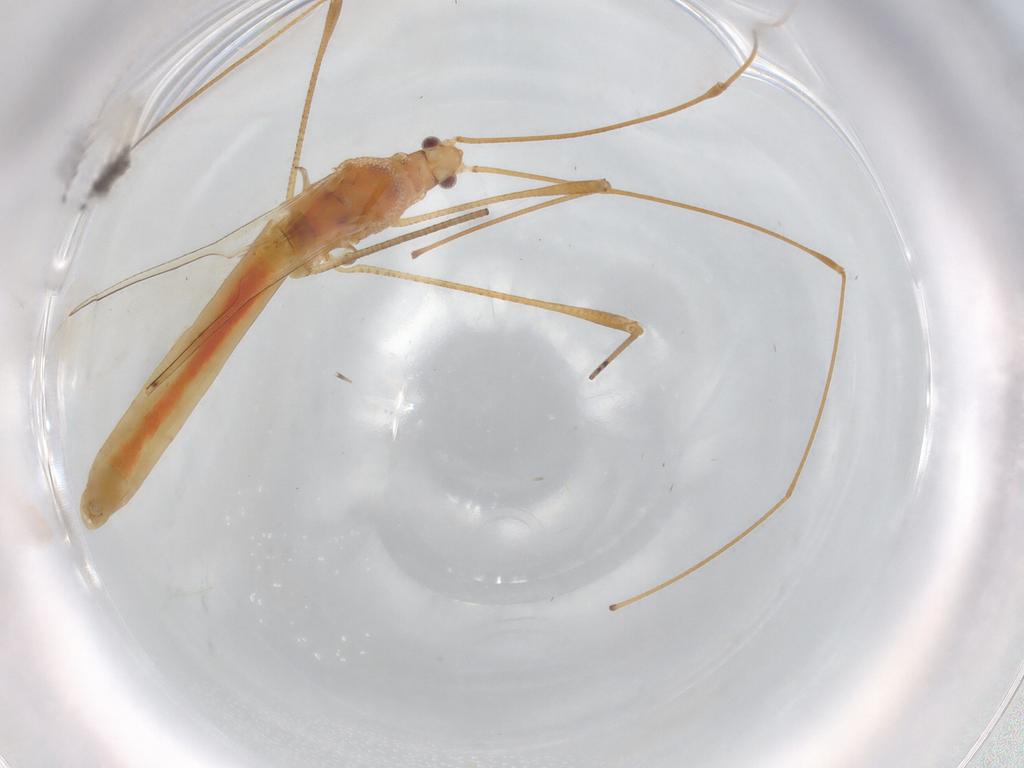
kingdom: Animalia
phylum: Arthropoda
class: Insecta
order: Hemiptera
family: Cicadellidae
